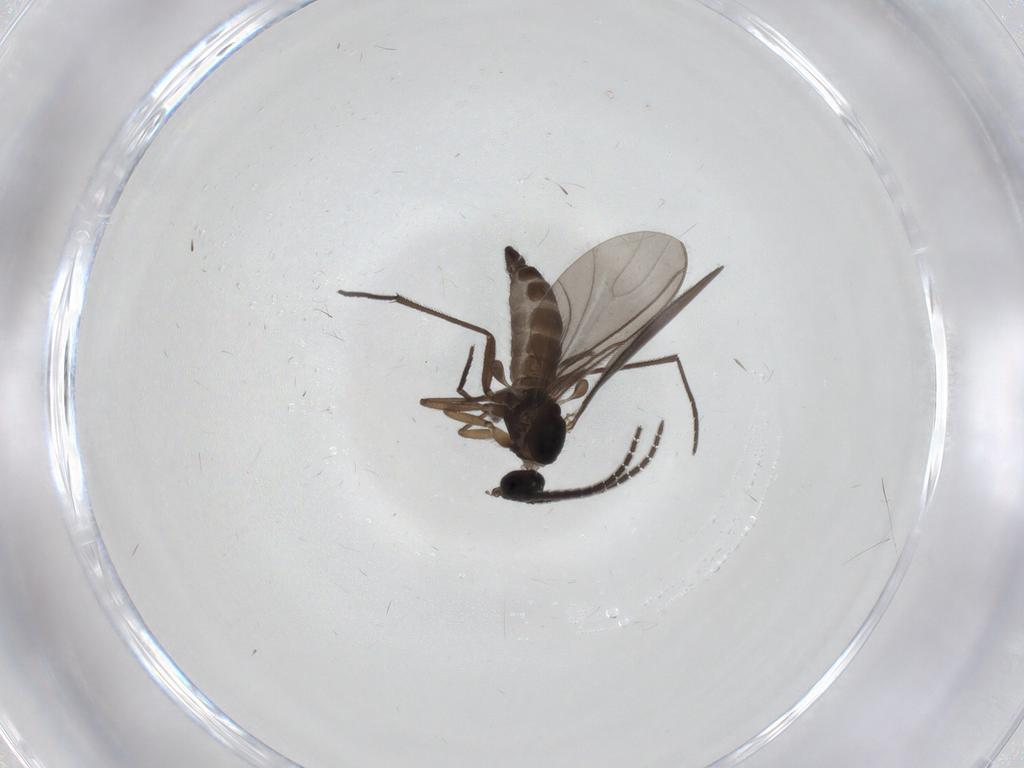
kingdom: Animalia
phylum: Arthropoda
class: Insecta
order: Diptera
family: Sciaridae
